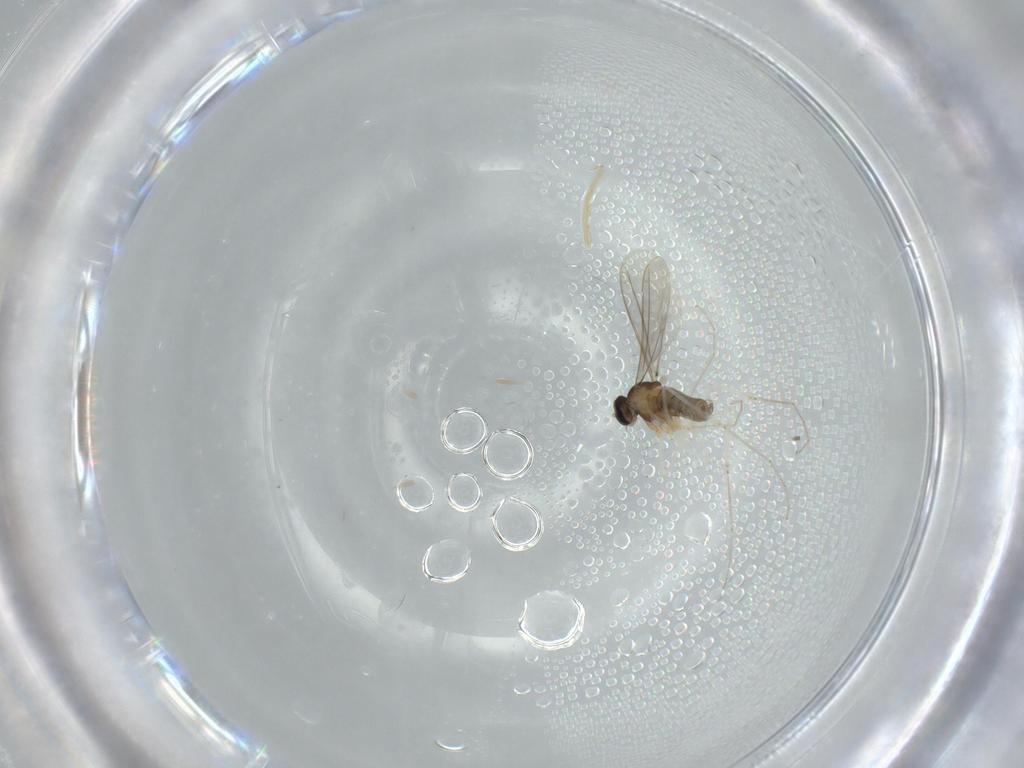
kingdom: Animalia
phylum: Arthropoda
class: Insecta
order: Diptera
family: Cecidomyiidae
